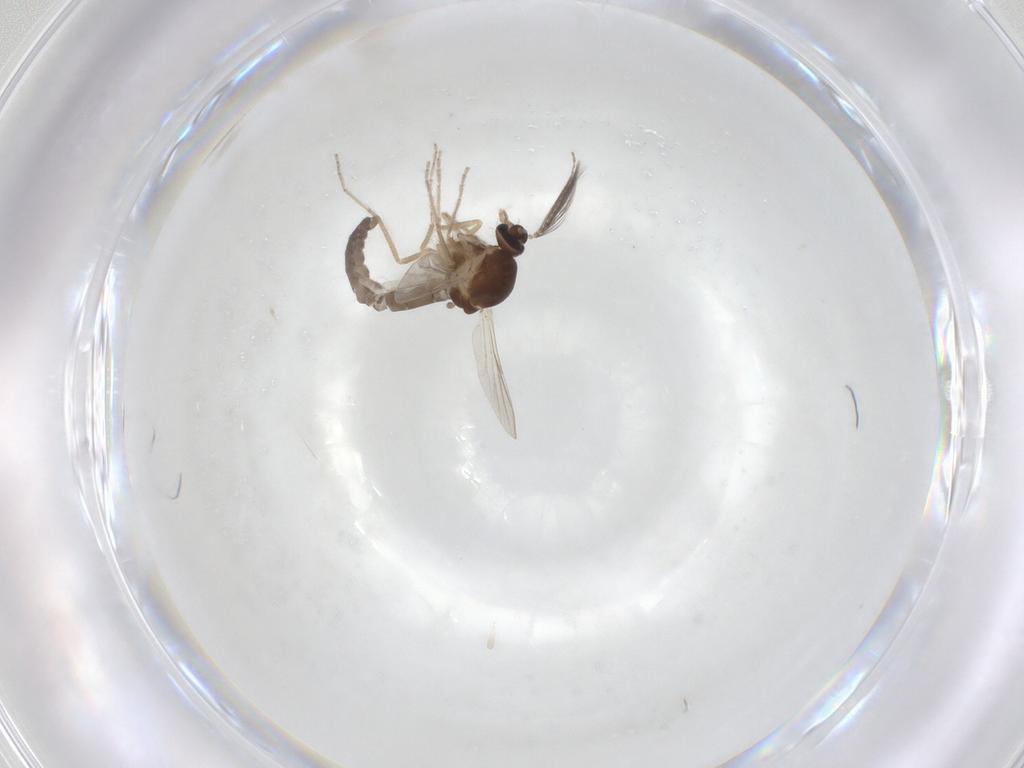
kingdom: Animalia
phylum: Arthropoda
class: Insecta
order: Diptera
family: Ceratopogonidae
